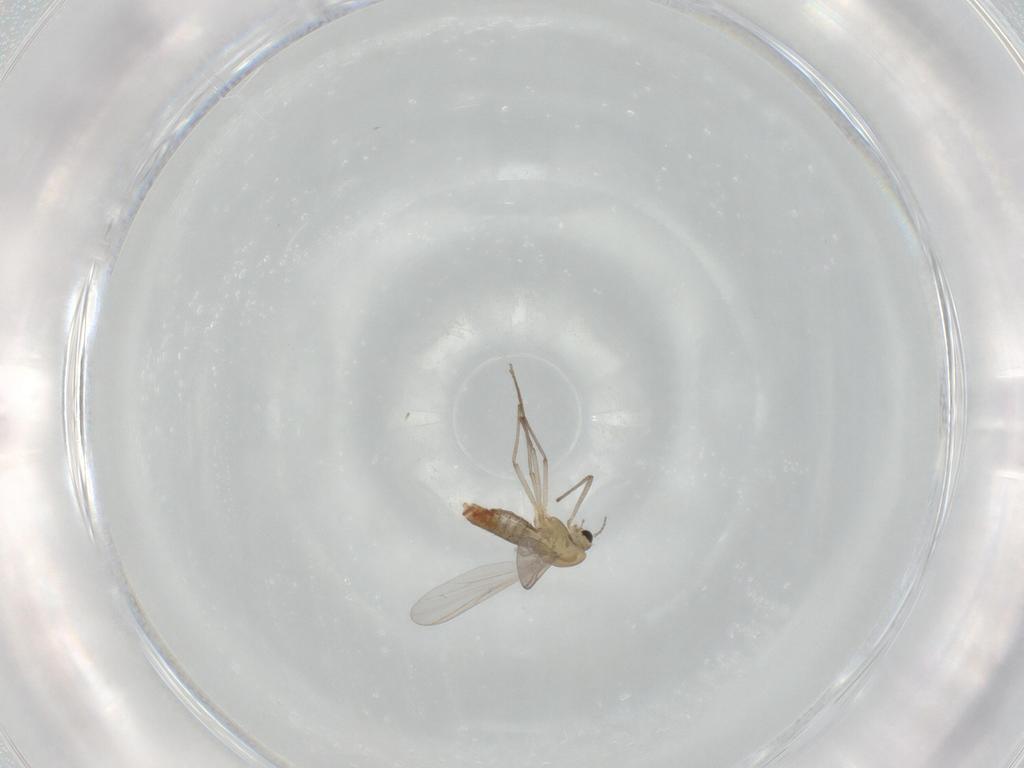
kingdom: Animalia
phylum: Arthropoda
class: Insecta
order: Diptera
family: Chironomidae
